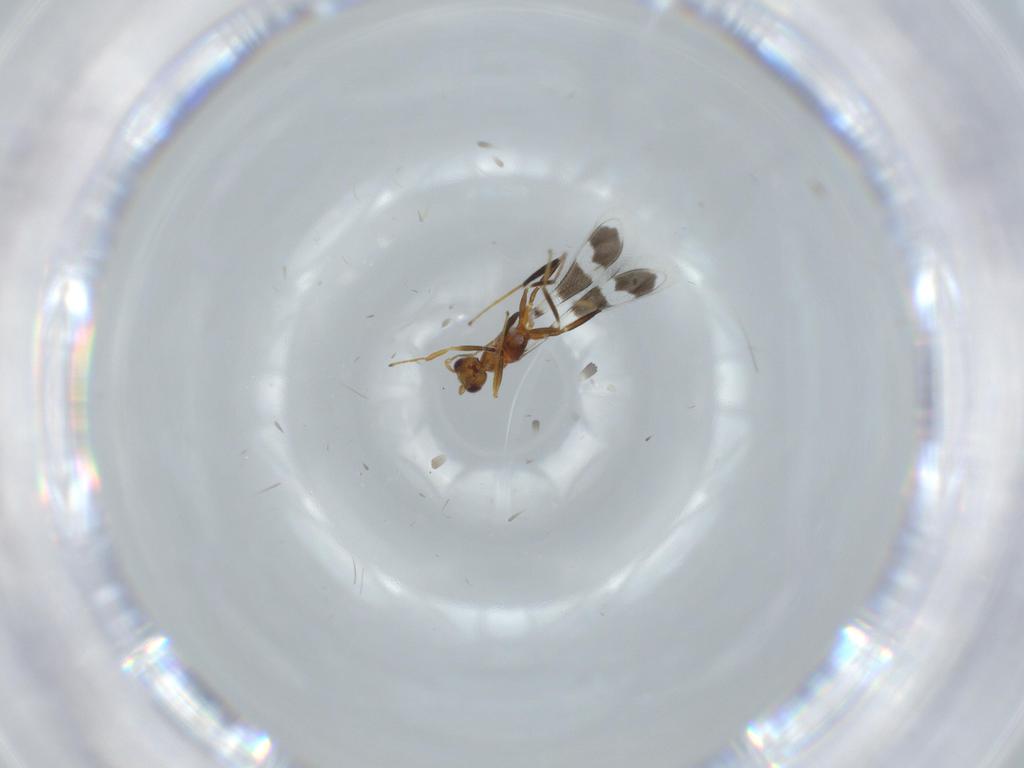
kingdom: Animalia
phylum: Arthropoda
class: Insecta
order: Hymenoptera
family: Mymaridae
